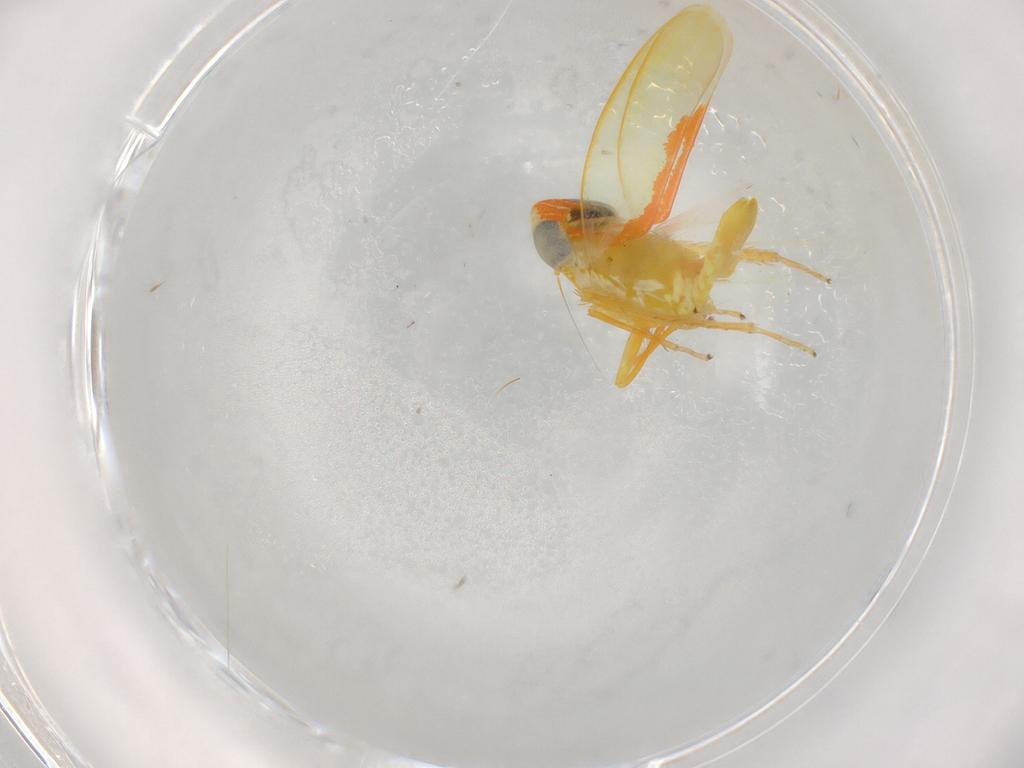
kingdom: Animalia
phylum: Arthropoda
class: Insecta
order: Hemiptera
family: Cicadellidae
